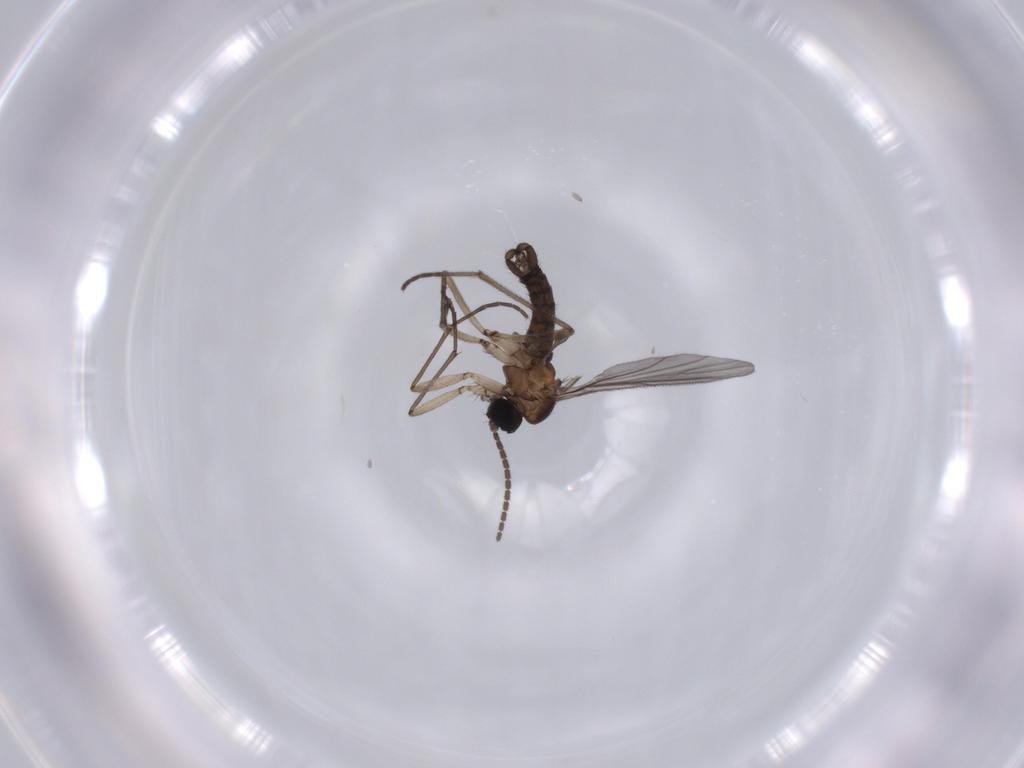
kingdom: Animalia
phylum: Arthropoda
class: Insecta
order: Diptera
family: Sciaridae
